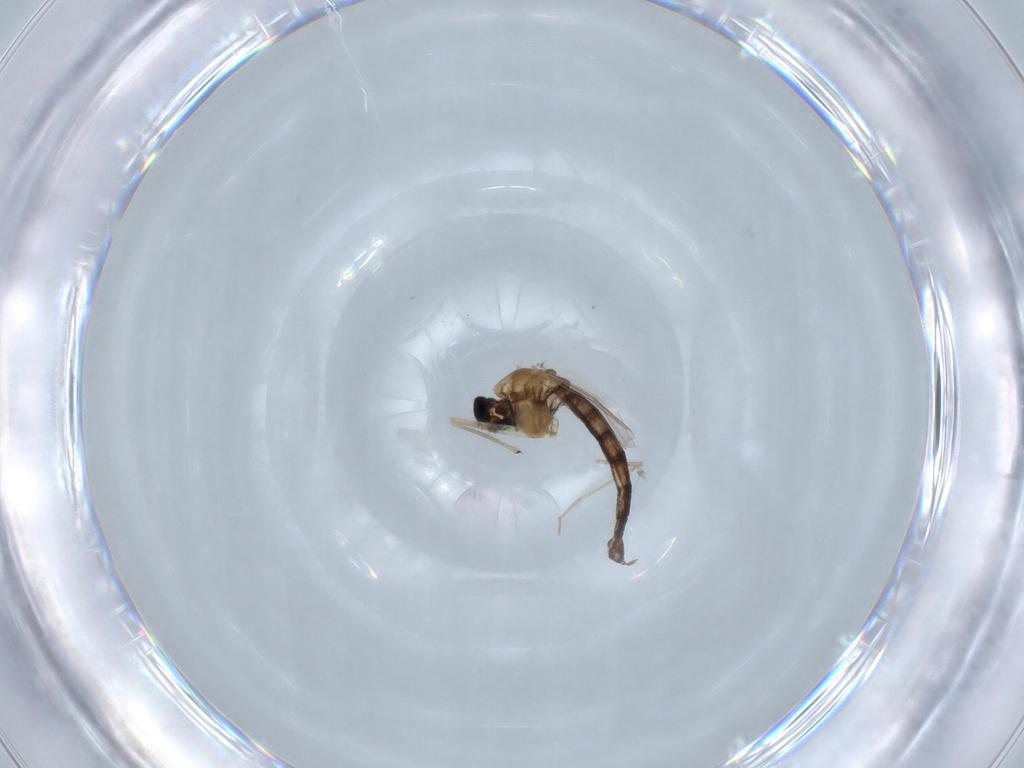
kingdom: Animalia
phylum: Arthropoda
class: Insecta
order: Diptera
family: Chironomidae
